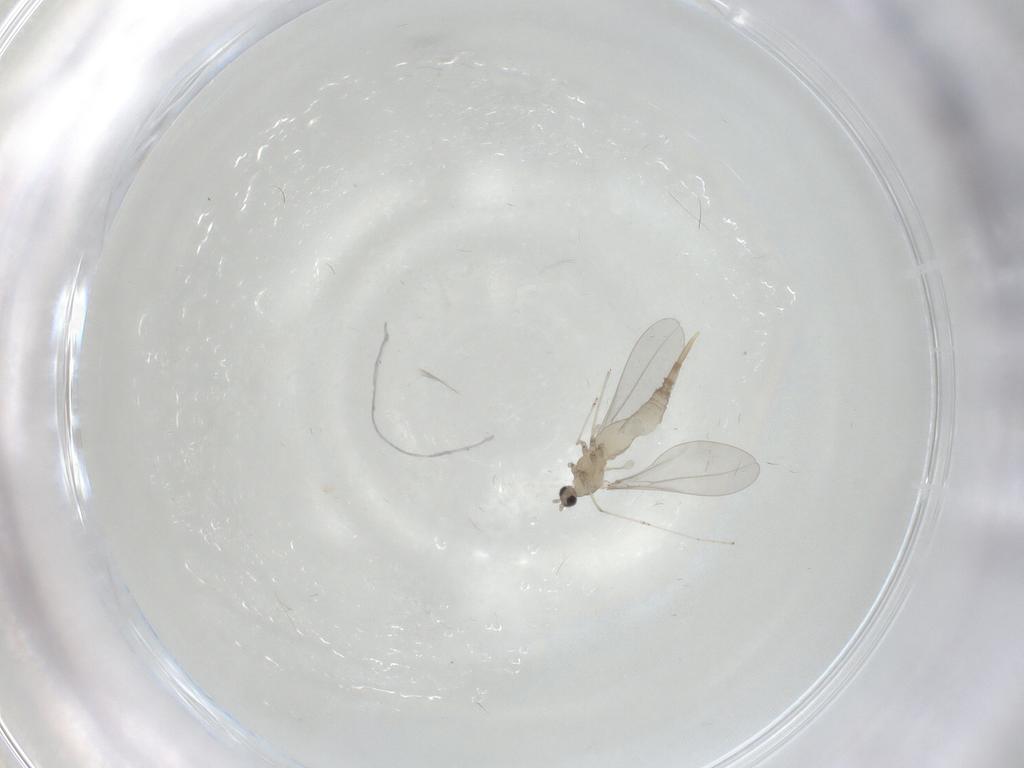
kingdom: Animalia
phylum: Arthropoda
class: Insecta
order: Diptera
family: Cecidomyiidae
